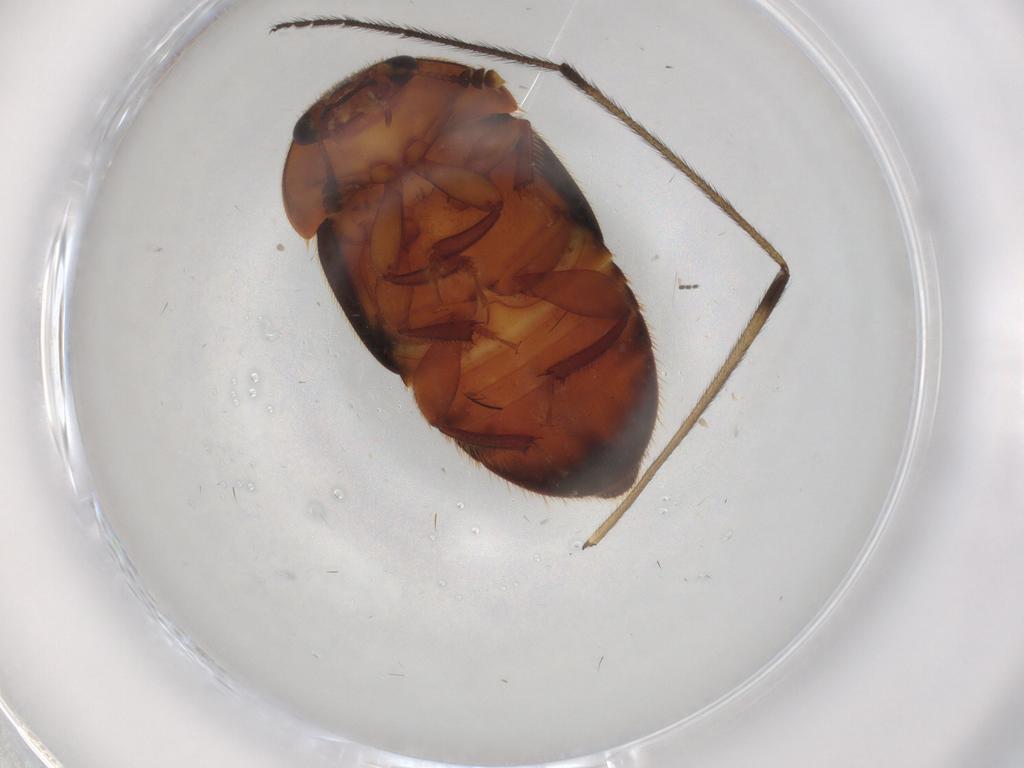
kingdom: Animalia
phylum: Arthropoda
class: Insecta
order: Coleoptera
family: Nitidulidae
